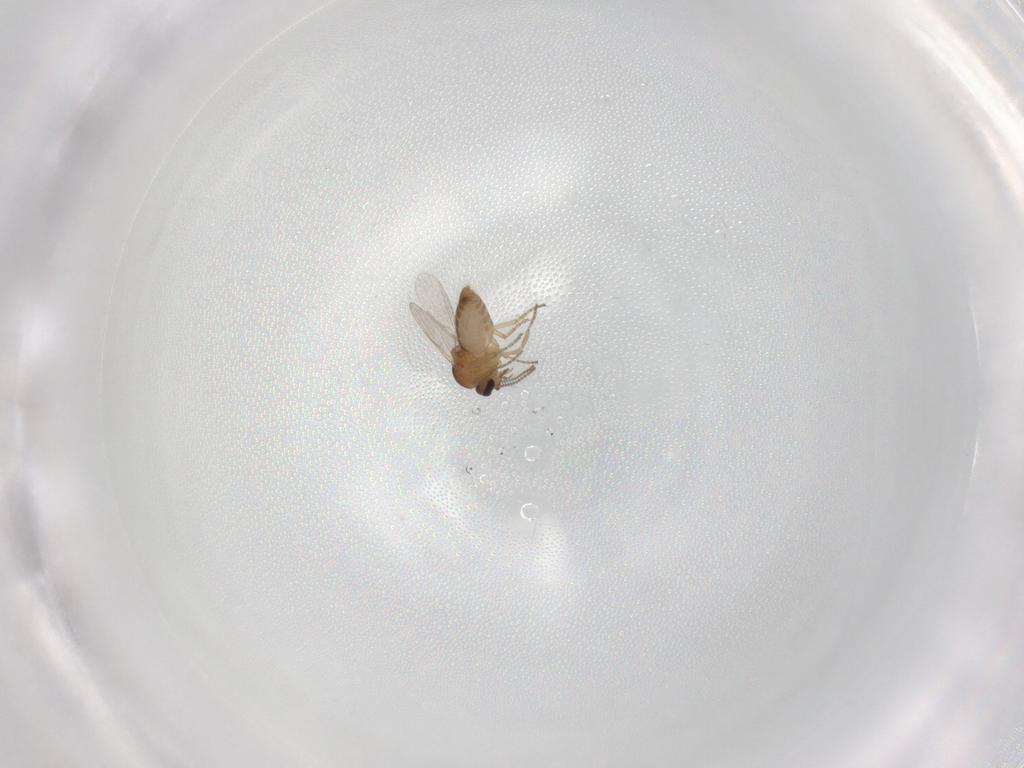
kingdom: Animalia
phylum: Arthropoda
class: Insecta
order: Diptera
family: Ceratopogonidae
